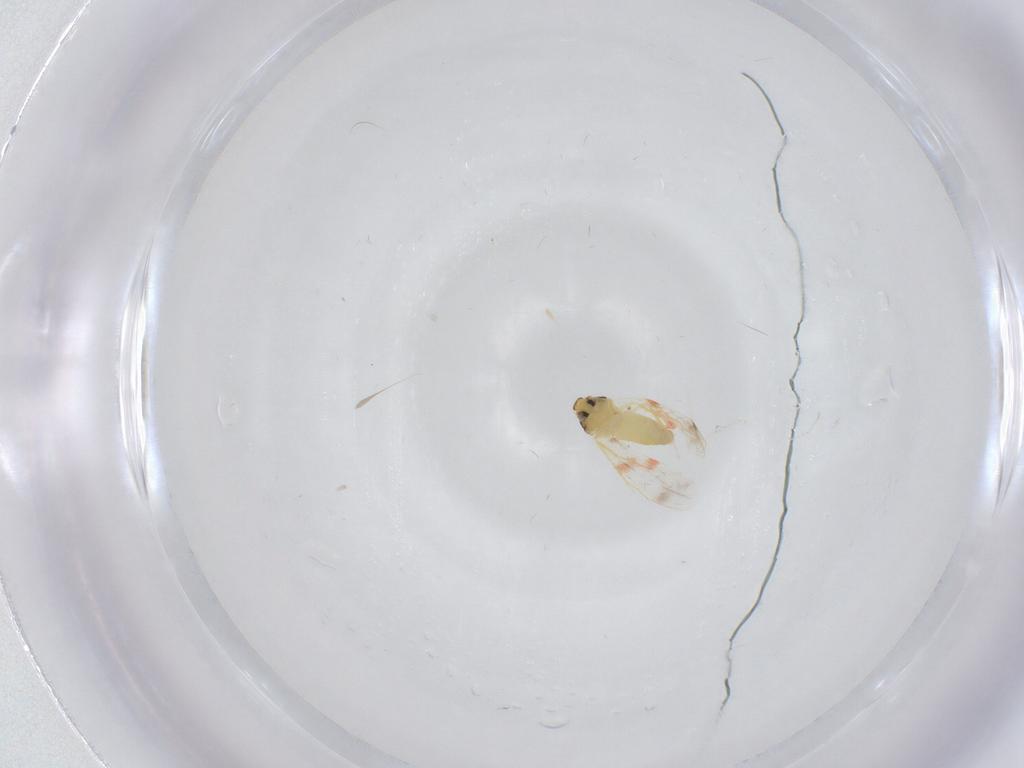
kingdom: Animalia
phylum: Arthropoda
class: Insecta
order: Hemiptera
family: Aleyrodidae
